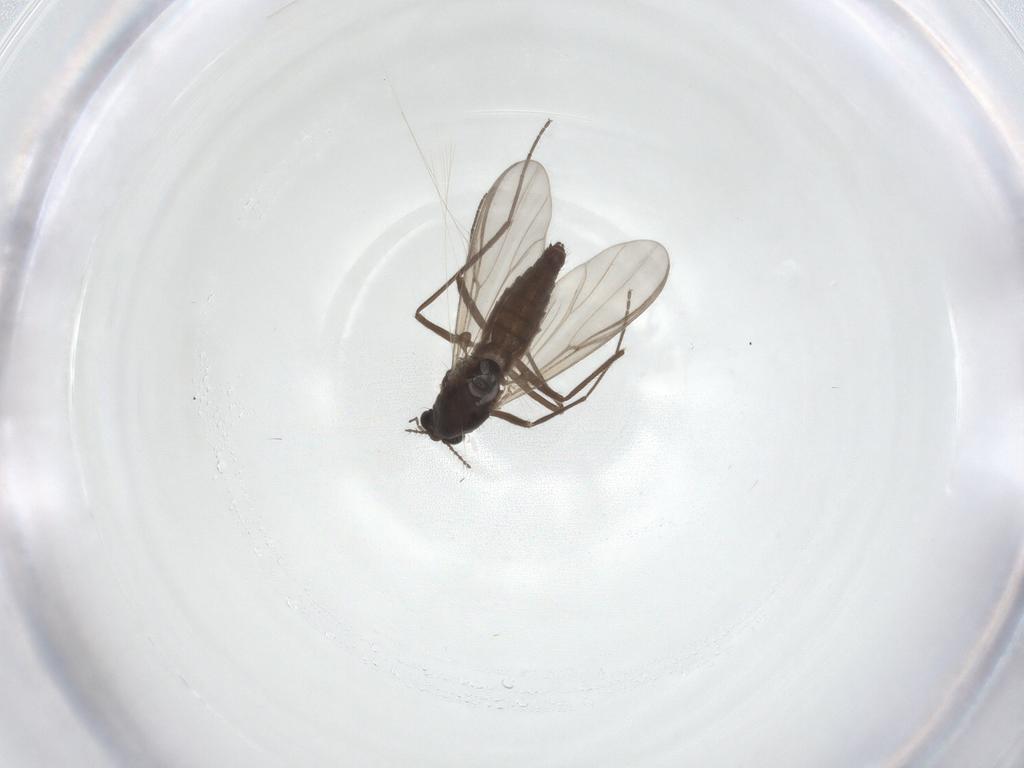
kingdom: Animalia
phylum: Arthropoda
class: Insecta
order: Diptera
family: Chironomidae
